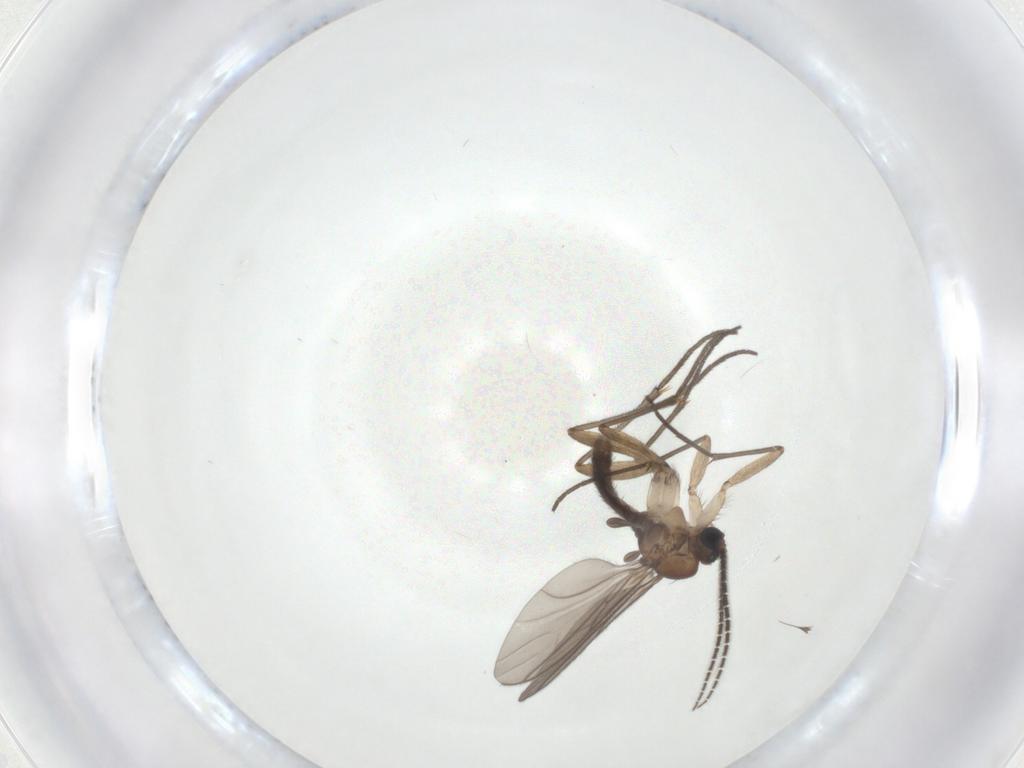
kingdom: Animalia
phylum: Arthropoda
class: Insecta
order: Diptera
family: Sciaridae
